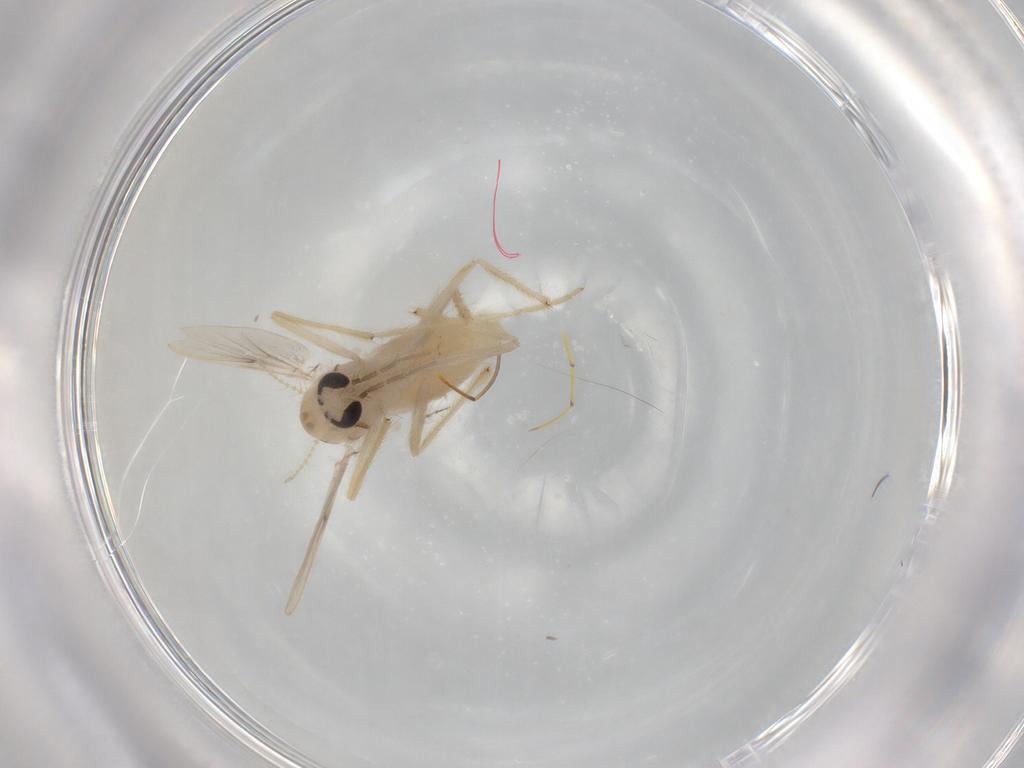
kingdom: Animalia
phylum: Arthropoda
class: Insecta
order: Diptera
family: Chironomidae
